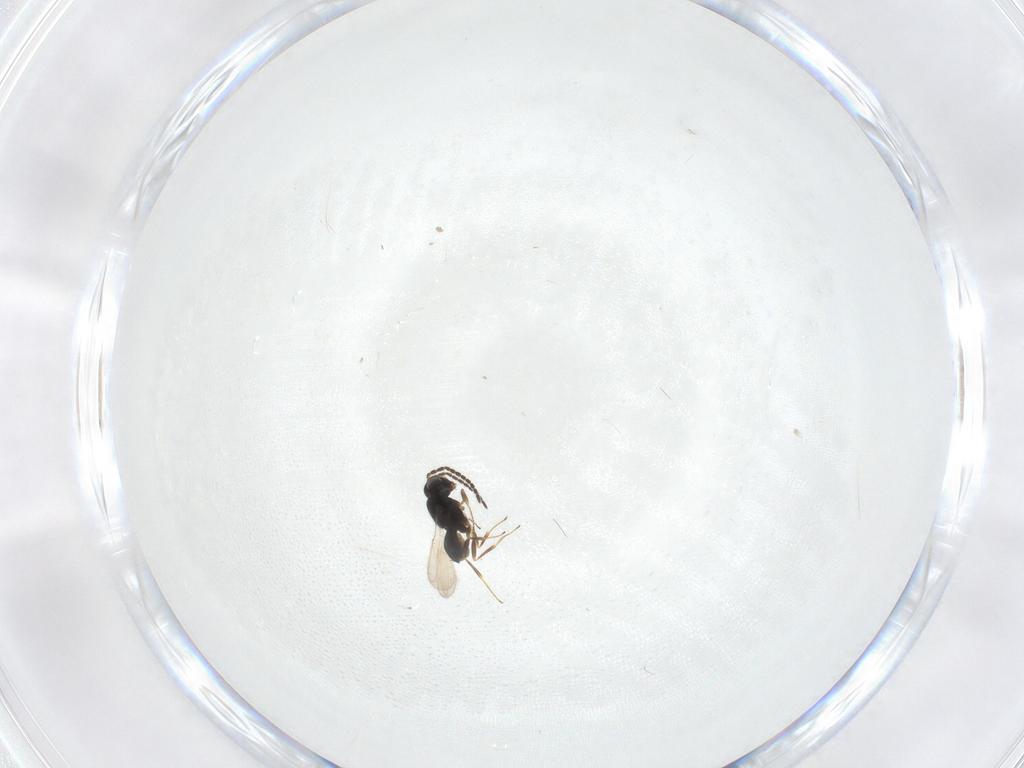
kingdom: Animalia
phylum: Arthropoda
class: Insecta
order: Hymenoptera
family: Scelionidae
